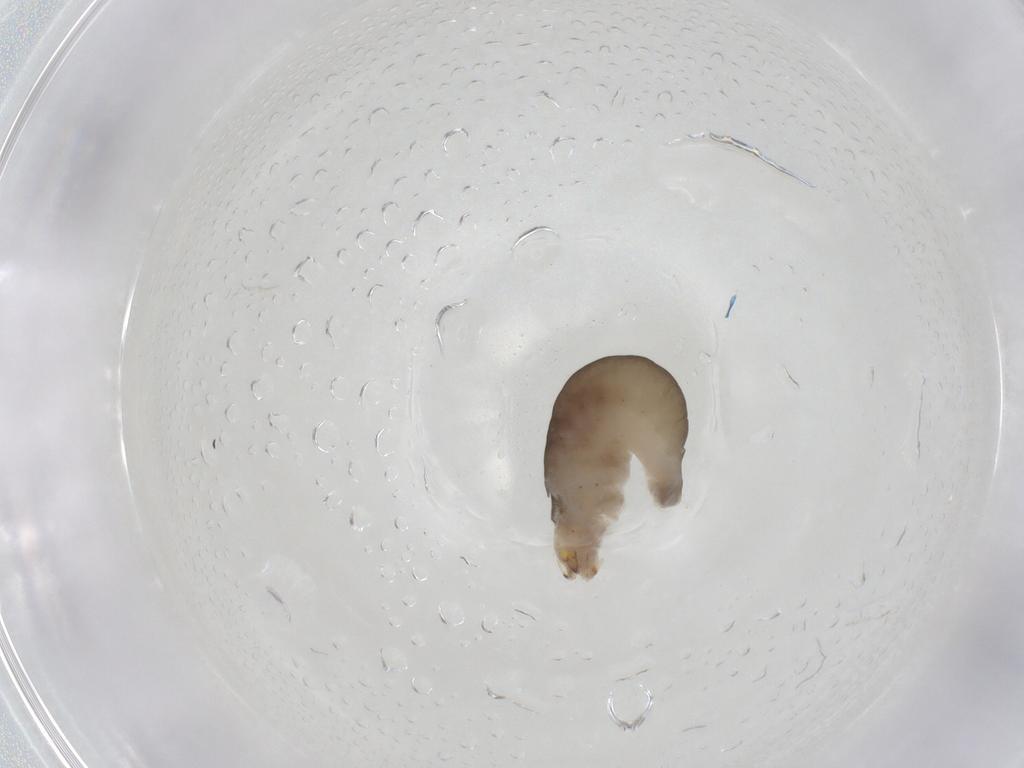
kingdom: Animalia
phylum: Arthropoda
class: Insecta
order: Hymenoptera
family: Dryinidae
